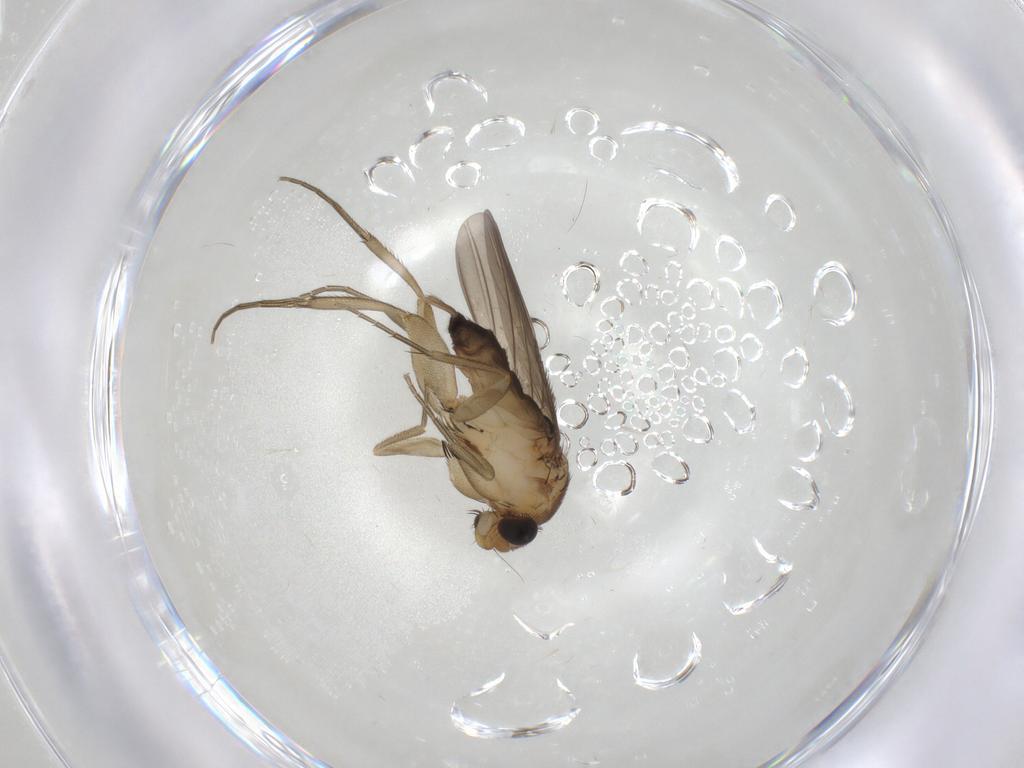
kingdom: Animalia
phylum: Arthropoda
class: Insecta
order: Diptera
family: Phoridae
